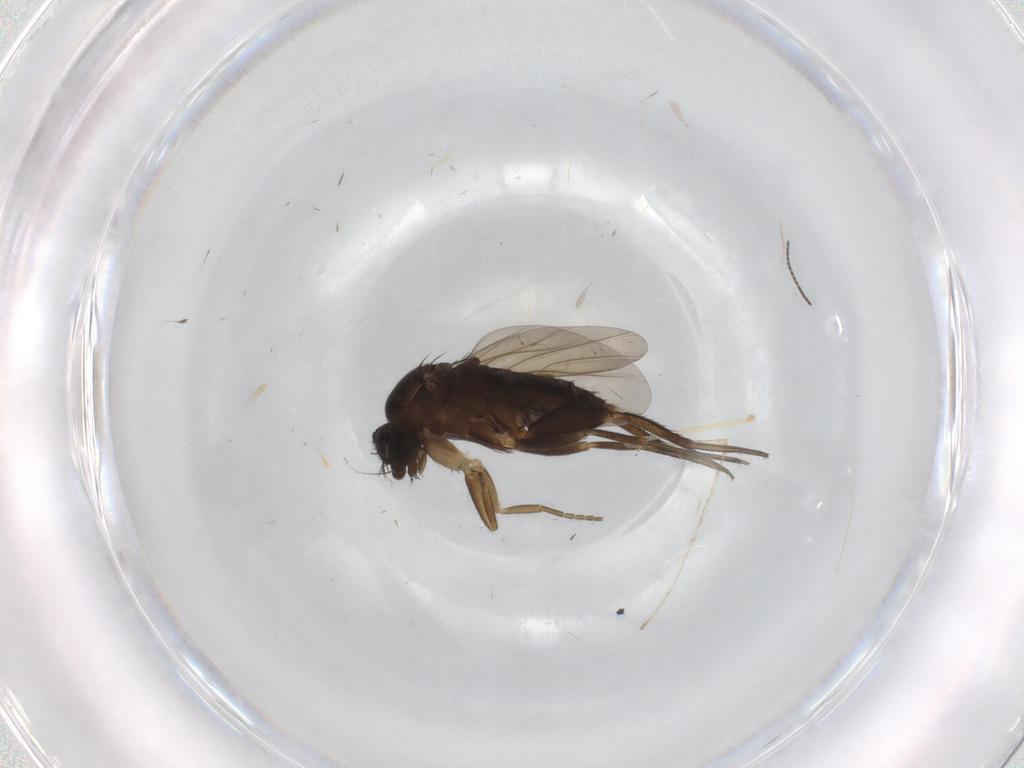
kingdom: Animalia
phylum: Arthropoda
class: Insecta
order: Diptera
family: Phoridae
